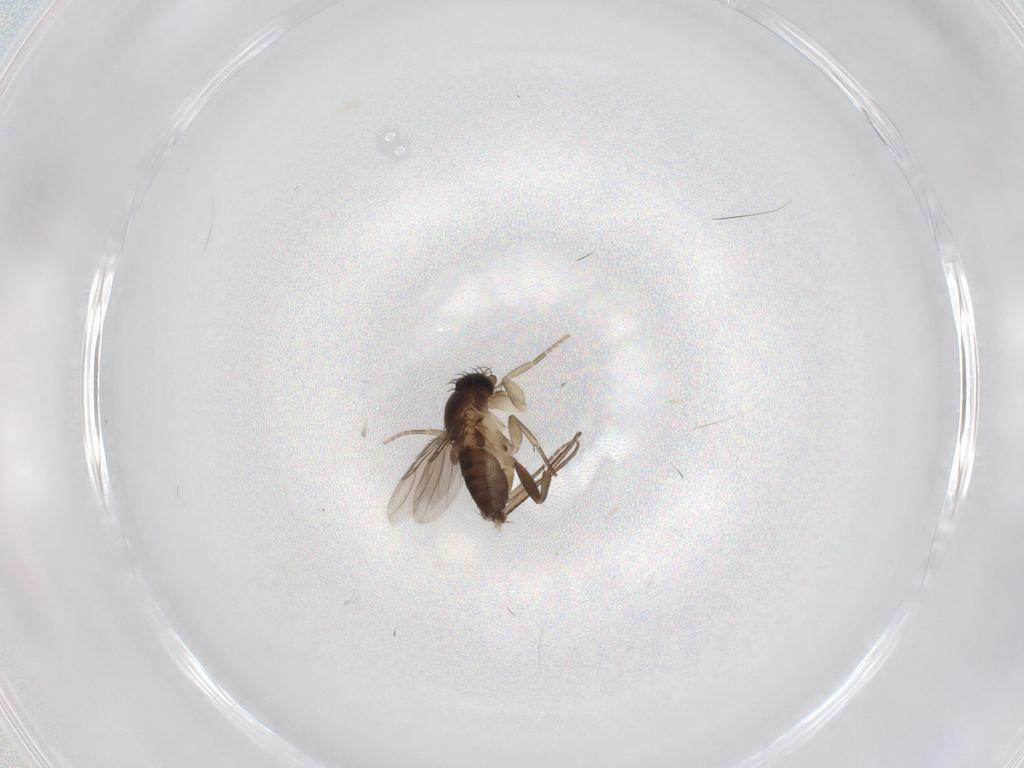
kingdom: Animalia
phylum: Arthropoda
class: Insecta
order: Diptera
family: Phoridae
